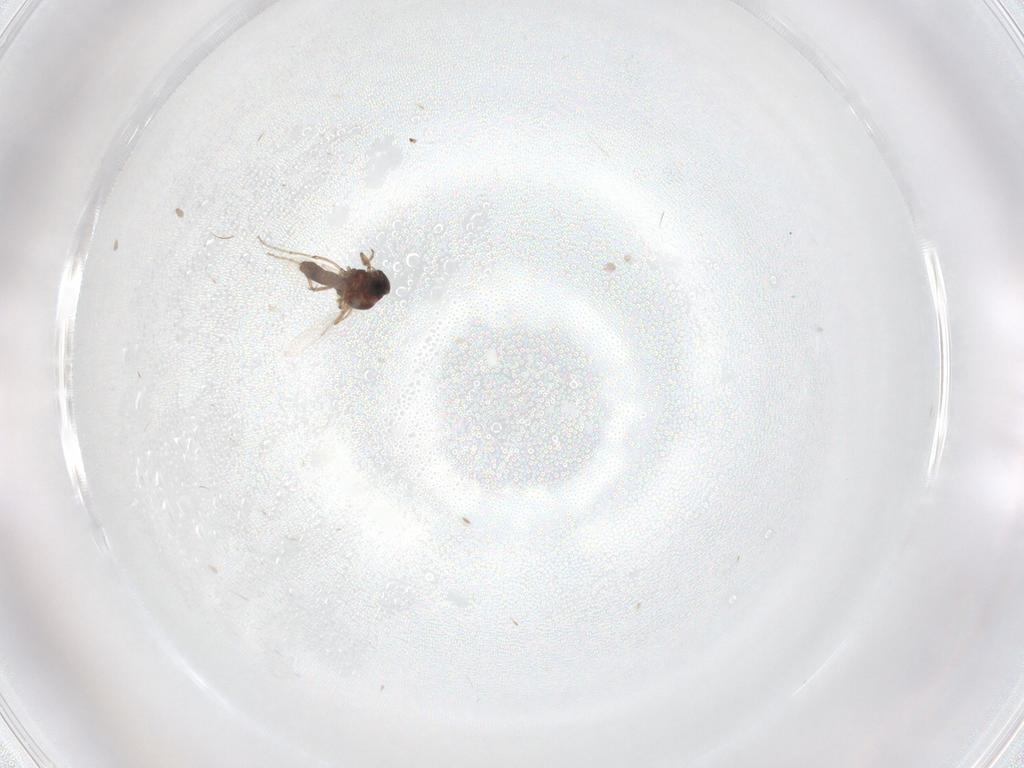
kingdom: Animalia
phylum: Arthropoda
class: Insecta
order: Diptera
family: Ceratopogonidae
